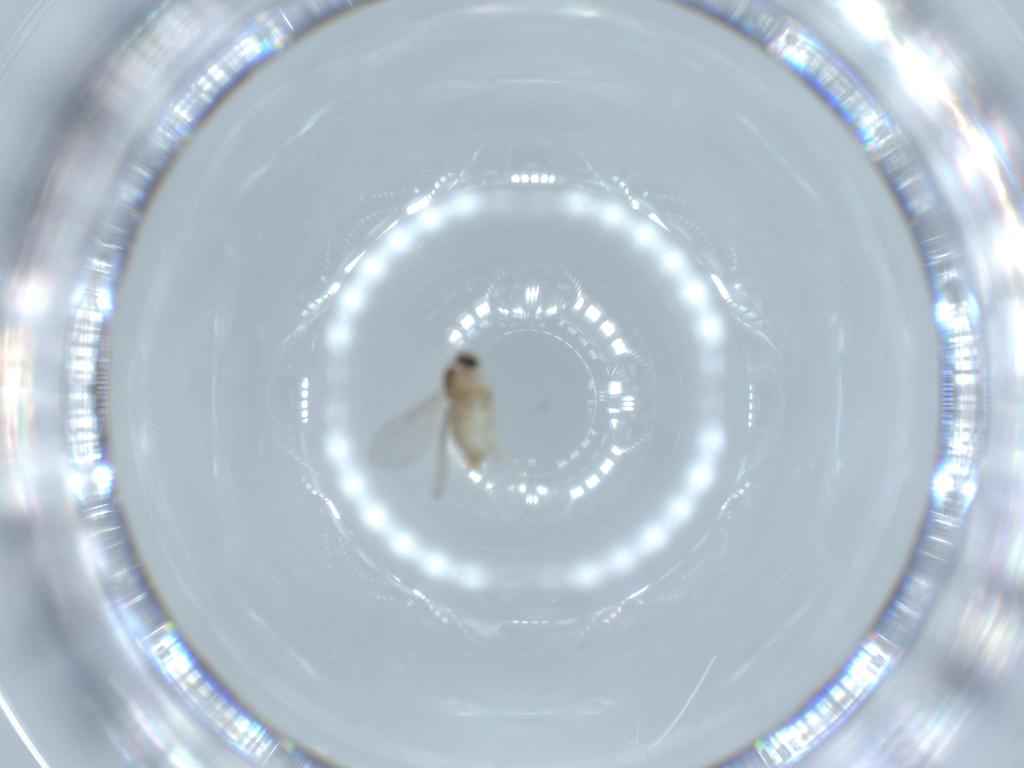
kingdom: Animalia
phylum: Arthropoda
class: Insecta
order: Diptera
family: Cecidomyiidae
